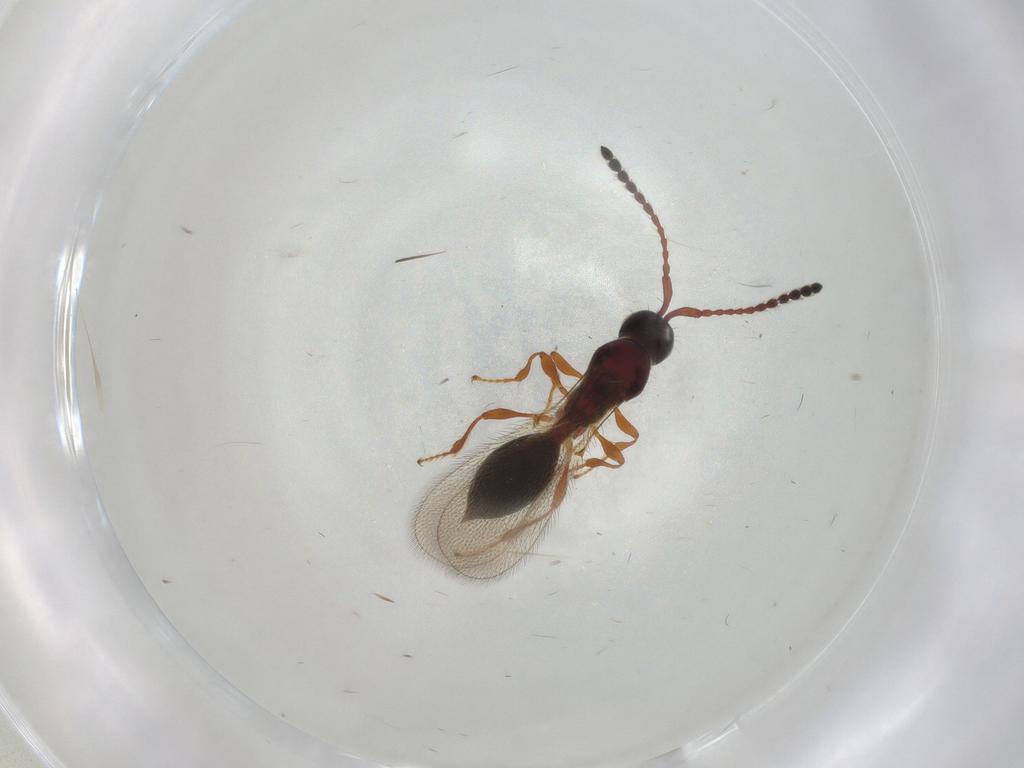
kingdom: Animalia
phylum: Arthropoda
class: Insecta
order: Hymenoptera
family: Diapriidae
